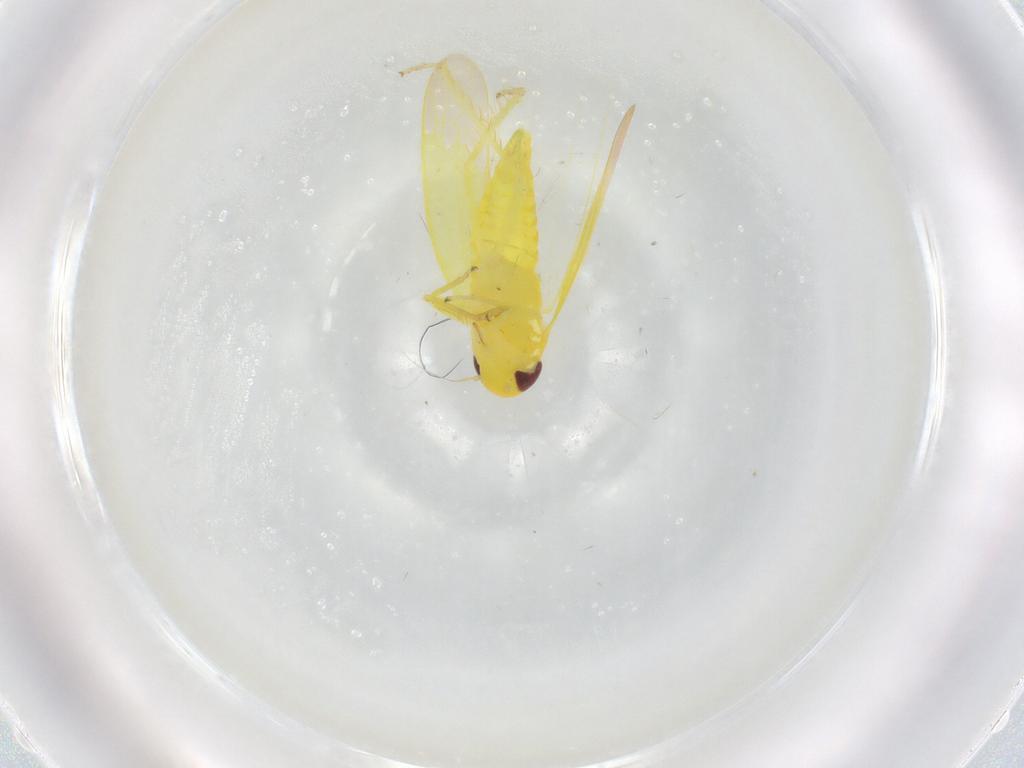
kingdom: Animalia
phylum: Arthropoda
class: Insecta
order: Hemiptera
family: Cicadellidae
